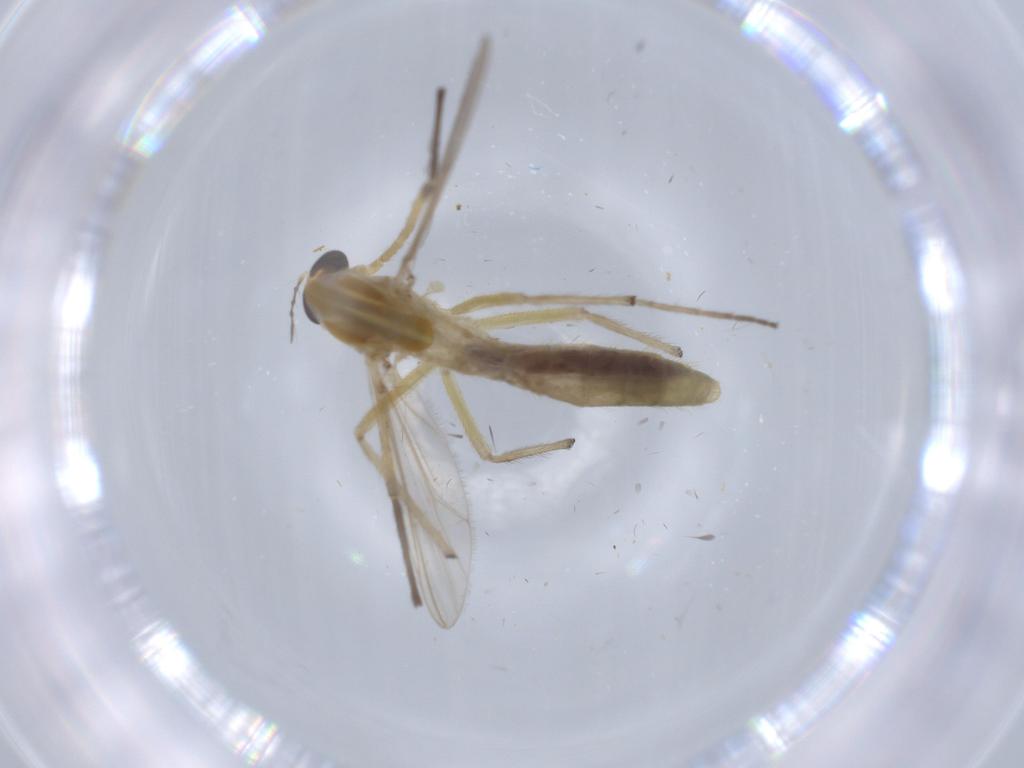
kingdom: Animalia
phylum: Arthropoda
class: Insecta
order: Diptera
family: Chironomidae
